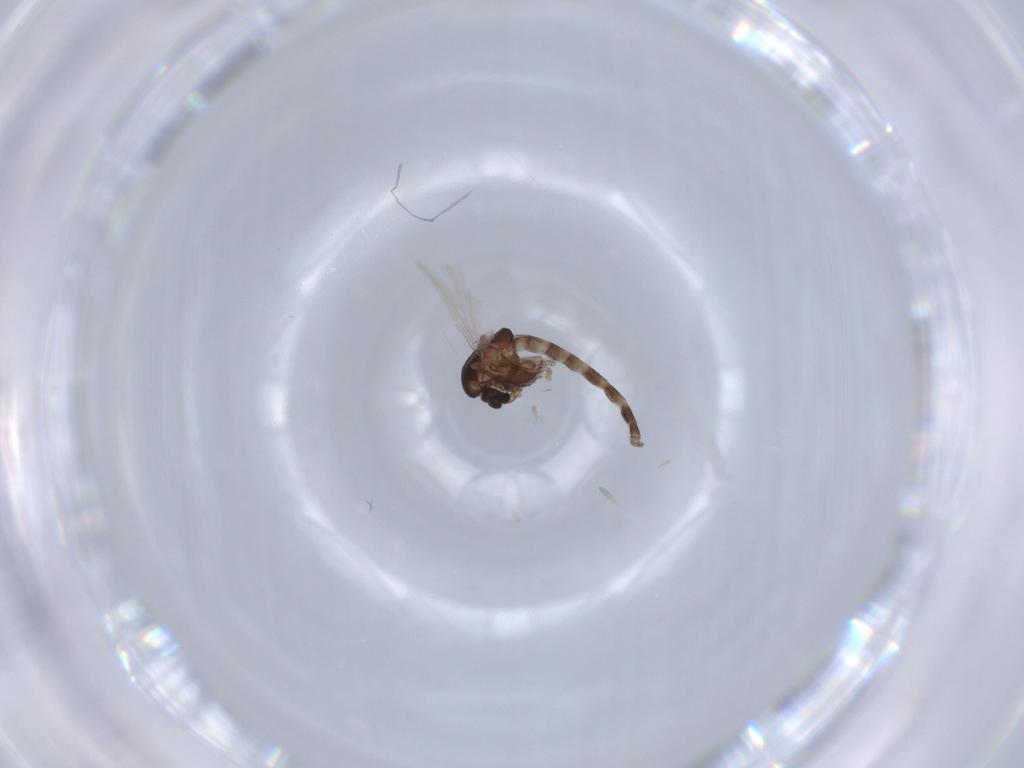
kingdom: Animalia
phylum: Arthropoda
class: Insecta
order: Diptera
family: Chironomidae
